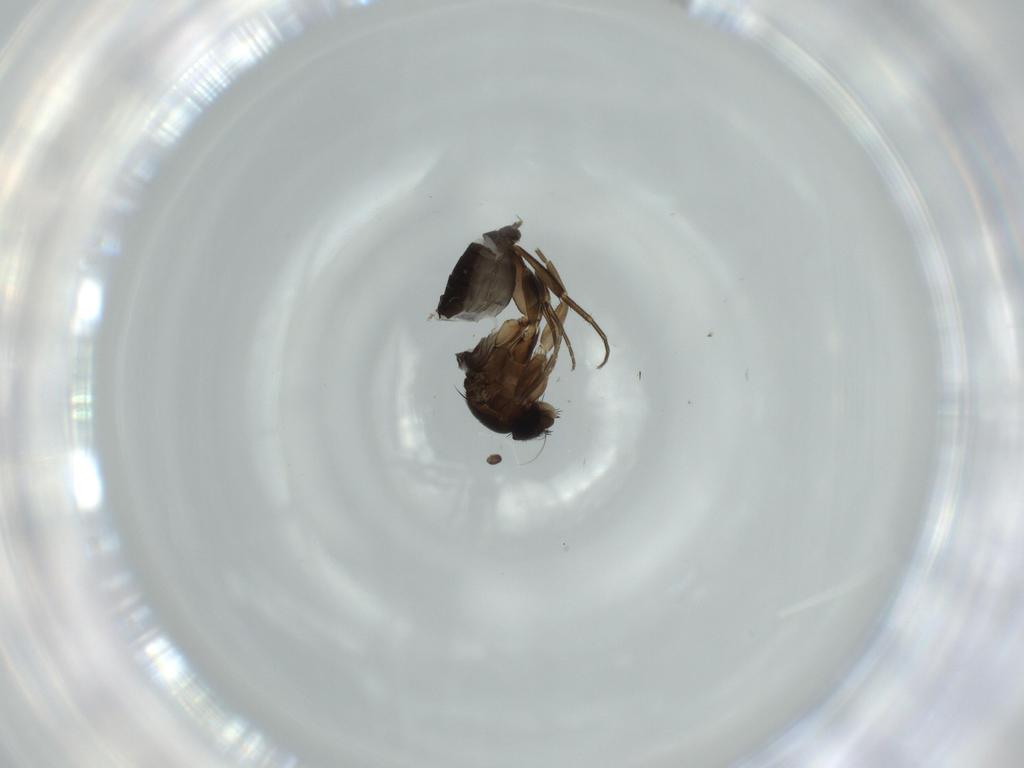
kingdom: Animalia
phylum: Arthropoda
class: Insecta
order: Diptera
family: Phoridae
